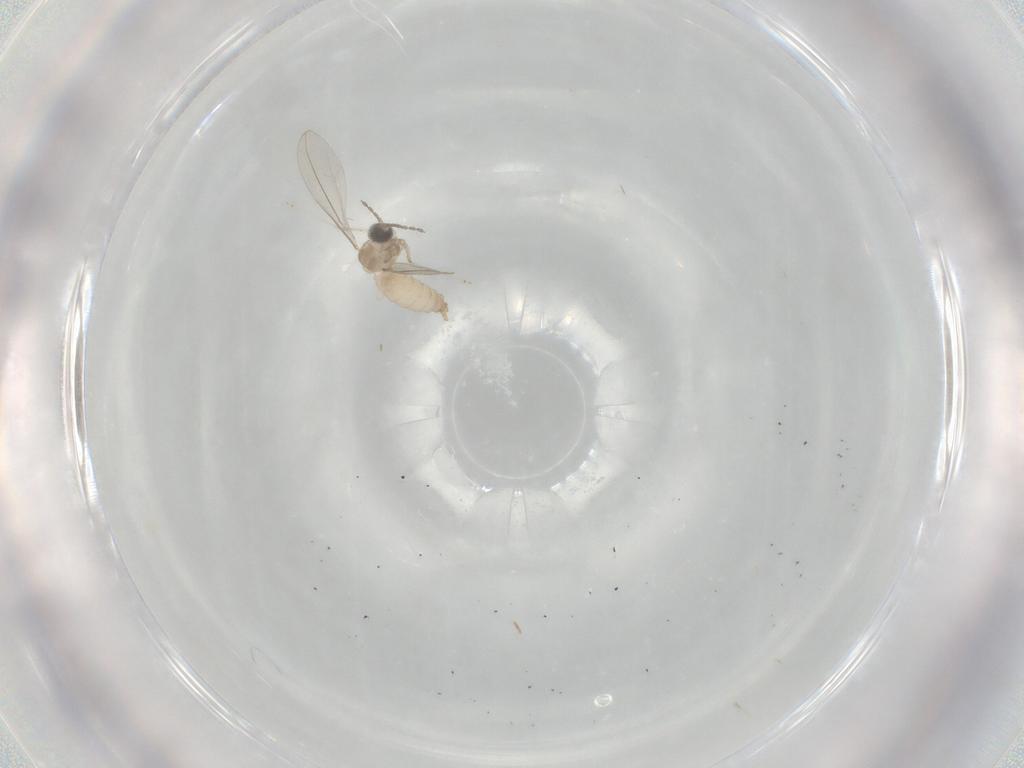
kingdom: Animalia
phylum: Arthropoda
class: Insecta
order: Diptera
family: Cecidomyiidae
